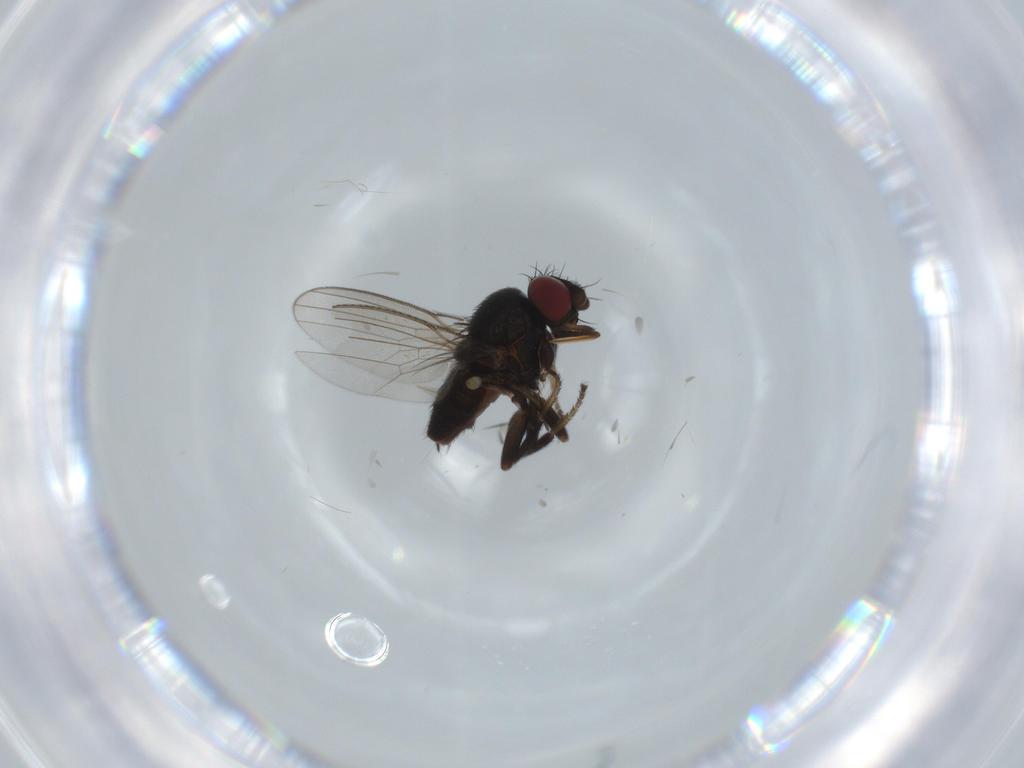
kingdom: Animalia
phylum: Arthropoda
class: Insecta
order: Diptera
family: Milichiidae
